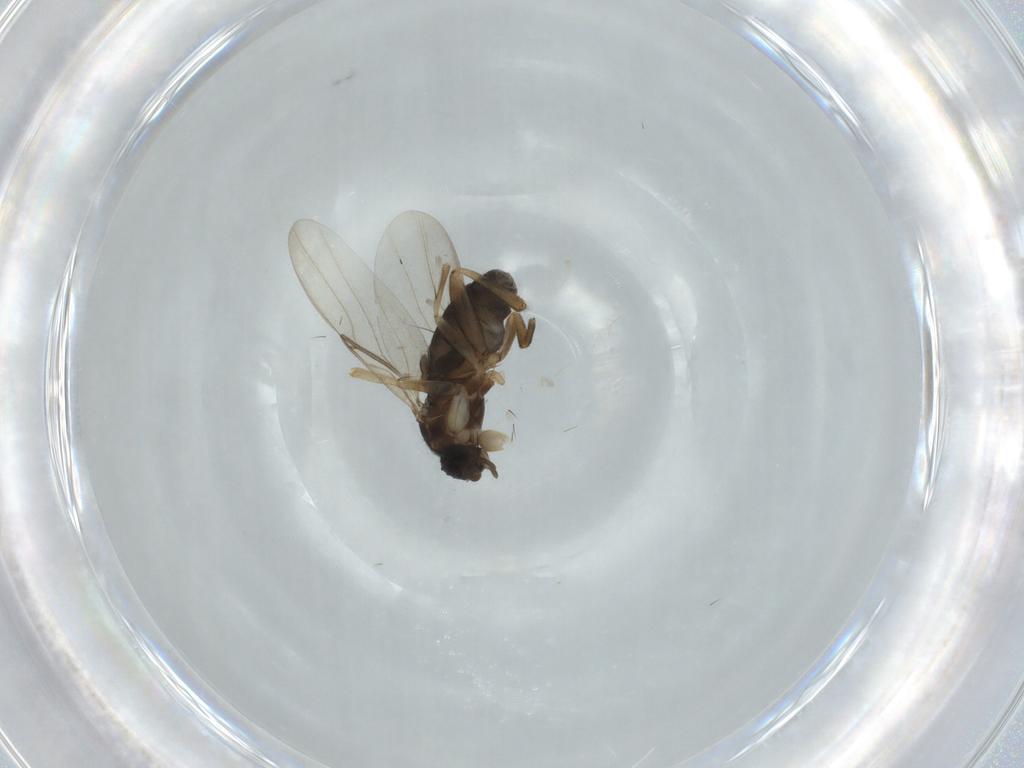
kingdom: Animalia
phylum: Arthropoda
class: Insecta
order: Diptera
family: Phoridae
